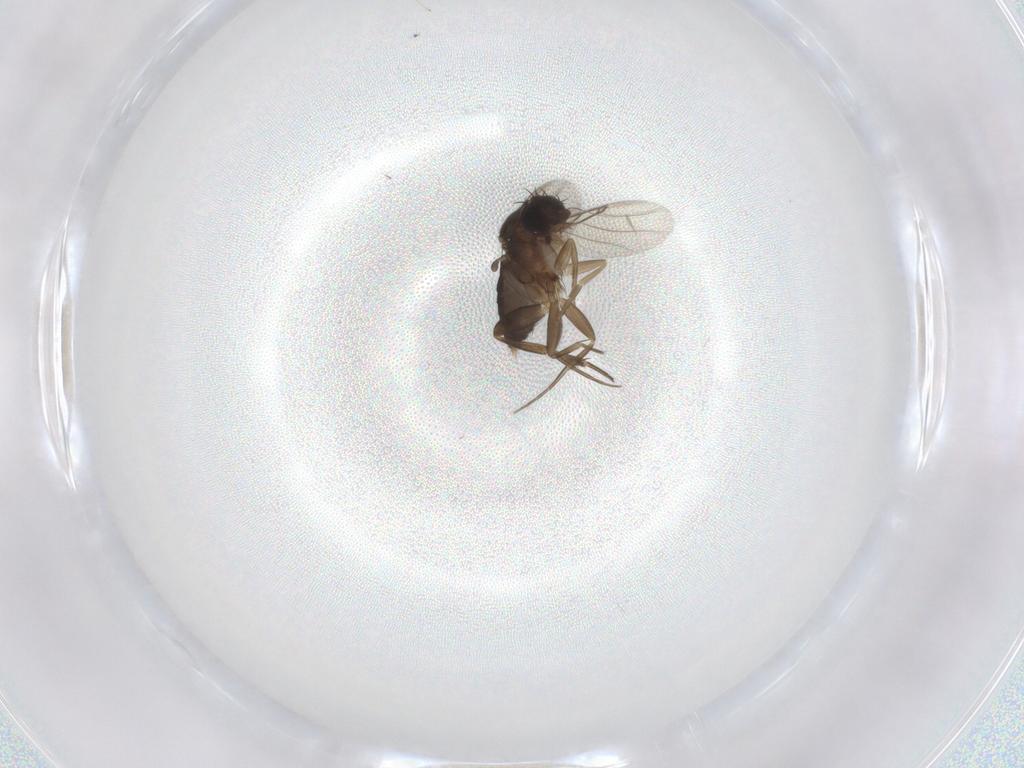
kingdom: Animalia
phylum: Arthropoda
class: Insecta
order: Diptera
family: Phoridae
